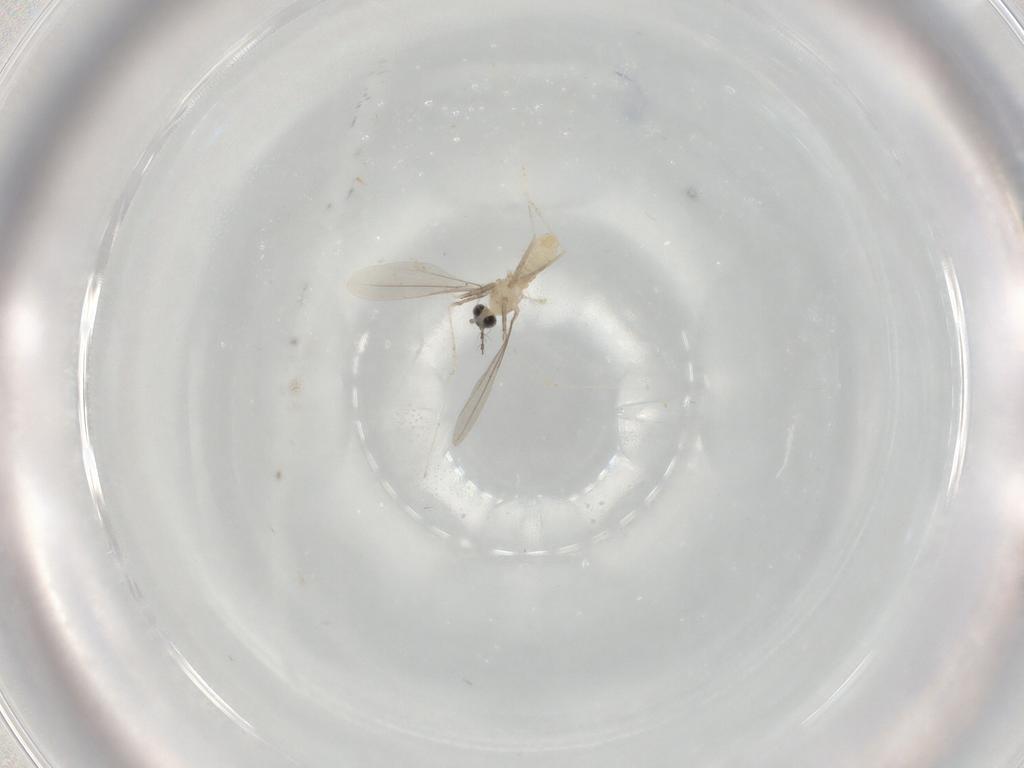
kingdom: Animalia
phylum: Arthropoda
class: Insecta
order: Diptera
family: Cecidomyiidae
